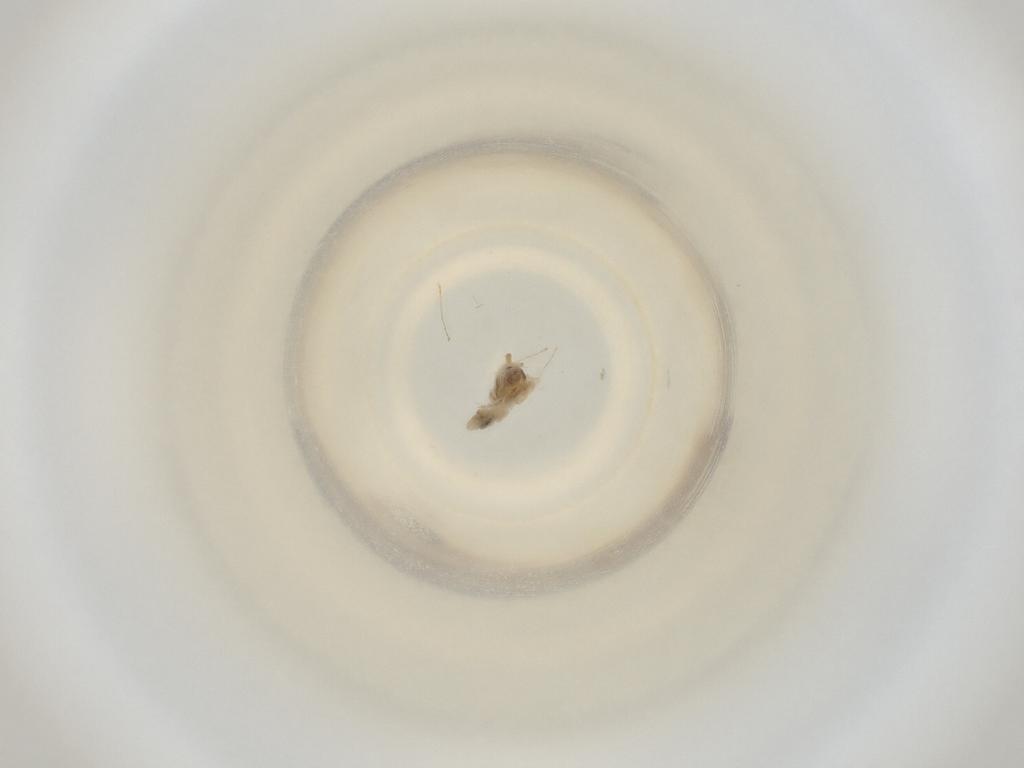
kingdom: Animalia
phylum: Arthropoda
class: Insecta
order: Diptera
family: Cecidomyiidae
